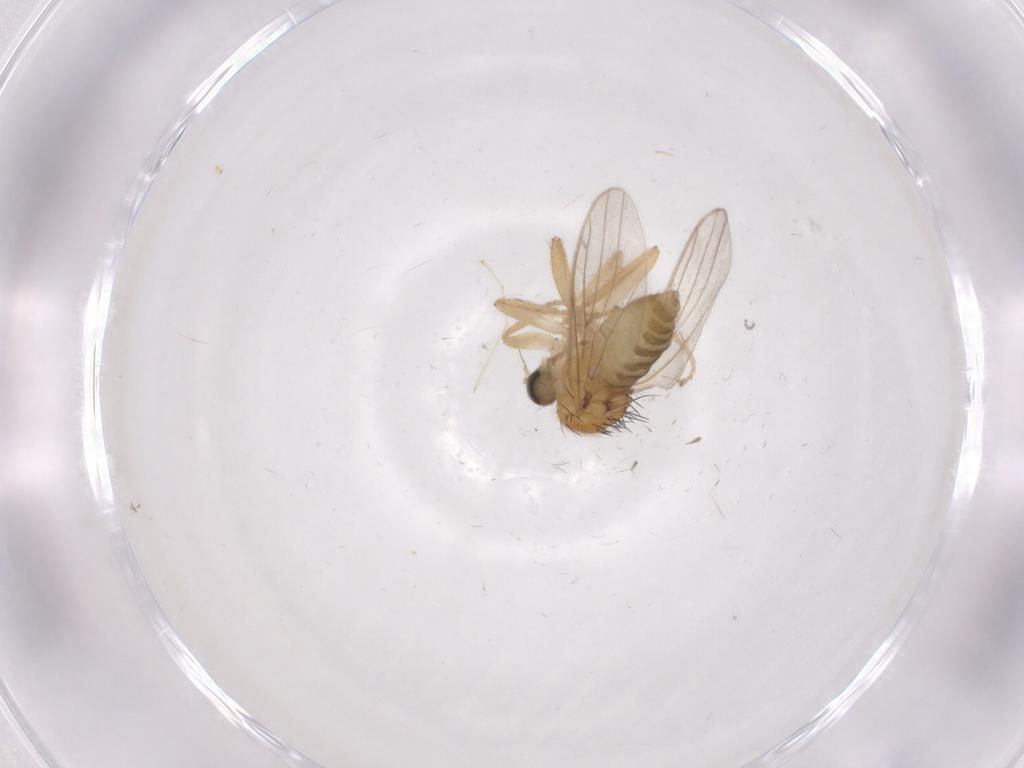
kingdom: Animalia
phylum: Arthropoda
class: Insecta
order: Diptera
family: Hybotidae
